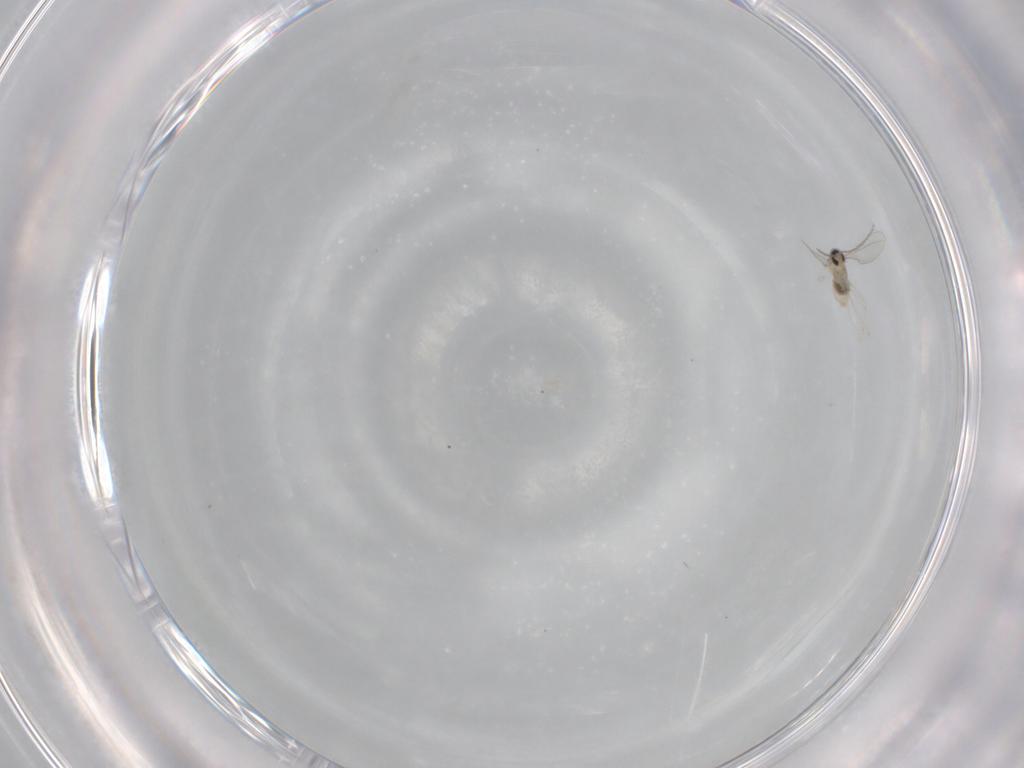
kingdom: Animalia
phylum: Arthropoda
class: Insecta
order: Diptera
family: Cecidomyiidae
